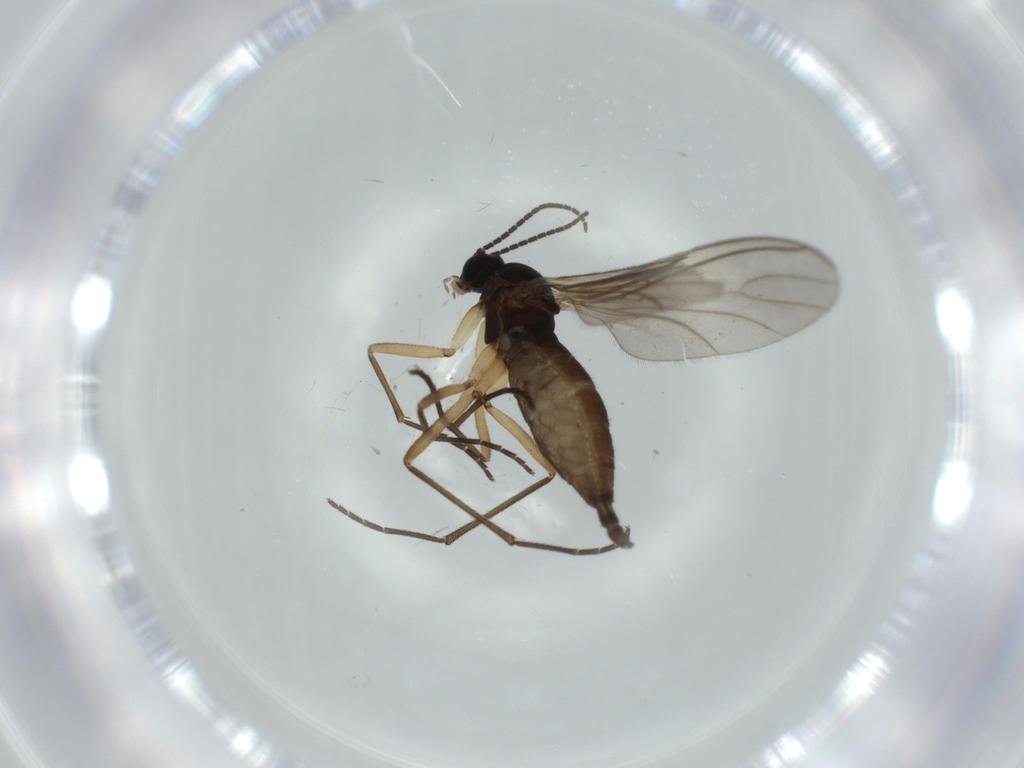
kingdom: Animalia
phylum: Arthropoda
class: Insecta
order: Diptera
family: Sciaridae
